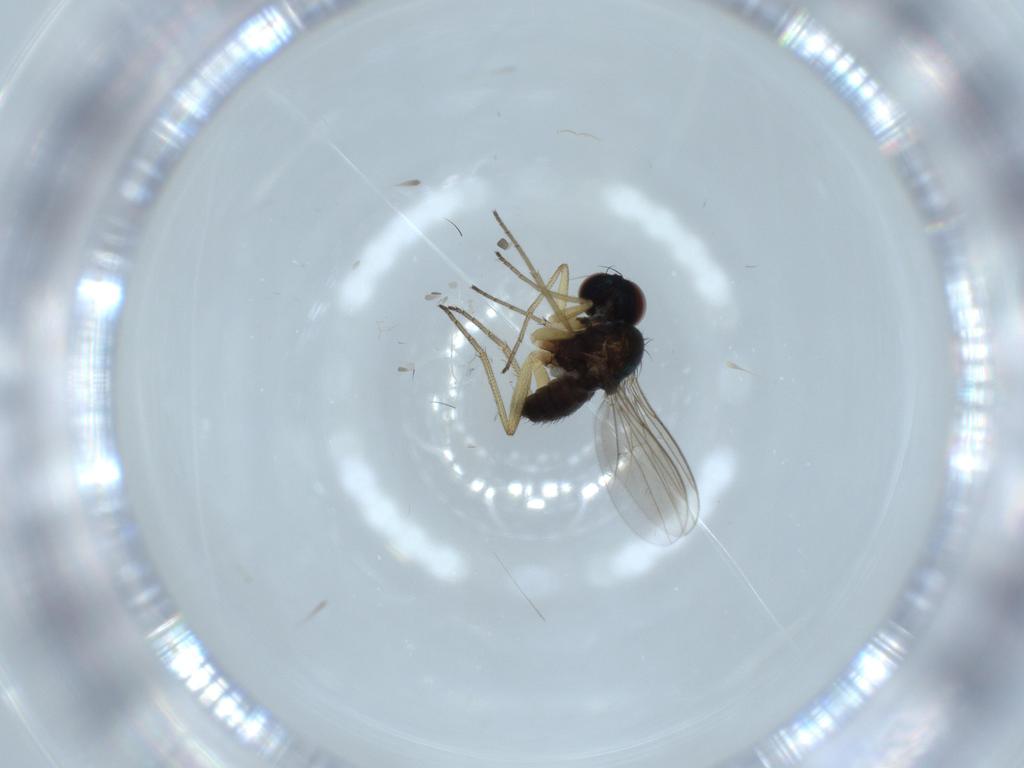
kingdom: Animalia
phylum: Arthropoda
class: Insecta
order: Diptera
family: Dolichopodidae
